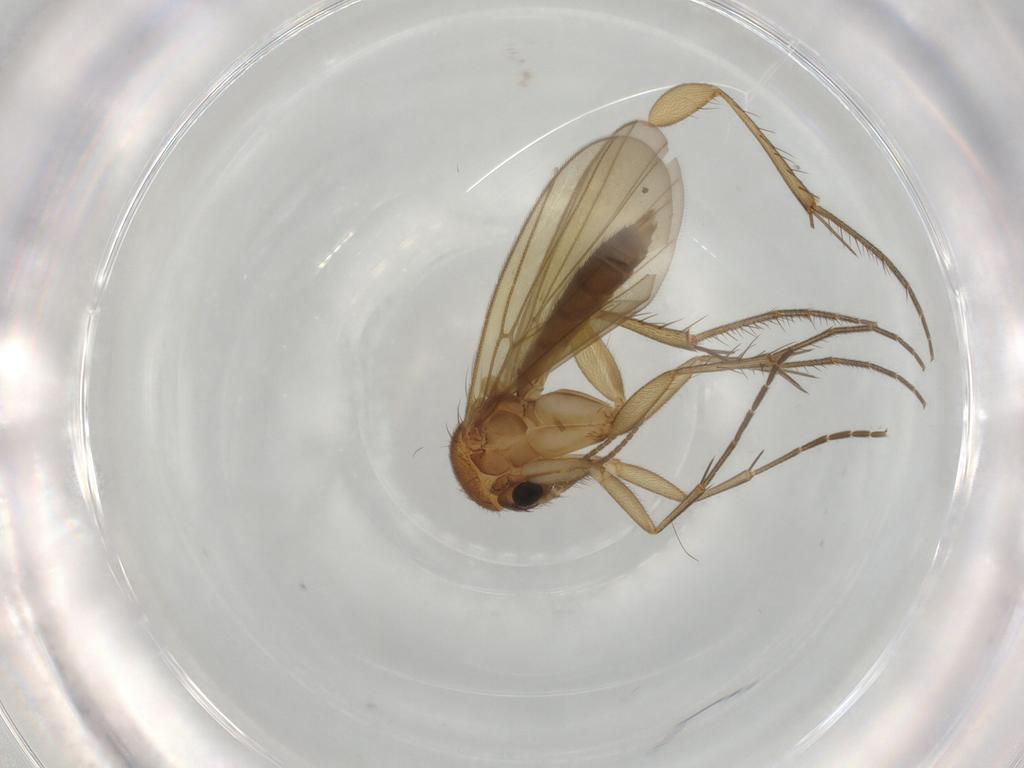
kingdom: Animalia
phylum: Arthropoda
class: Insecta
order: Diptera
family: Mycetophilidae
